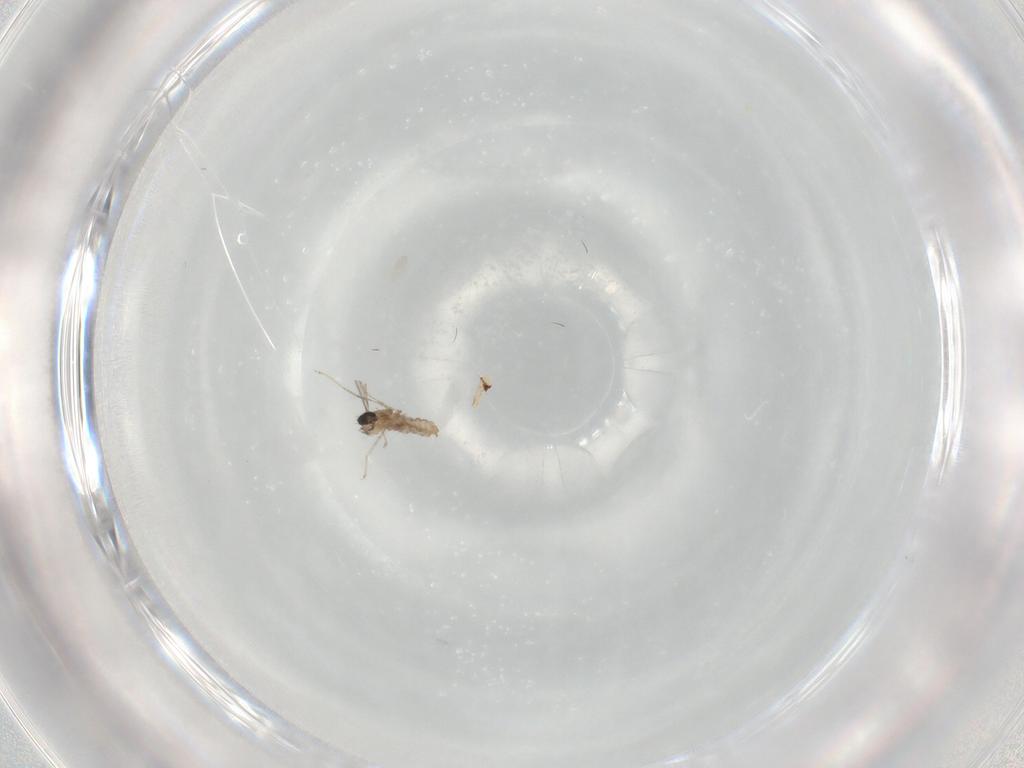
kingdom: Animalia
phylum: Arthropoda
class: Insecta
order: Diptera
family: Cecidomyiidae
